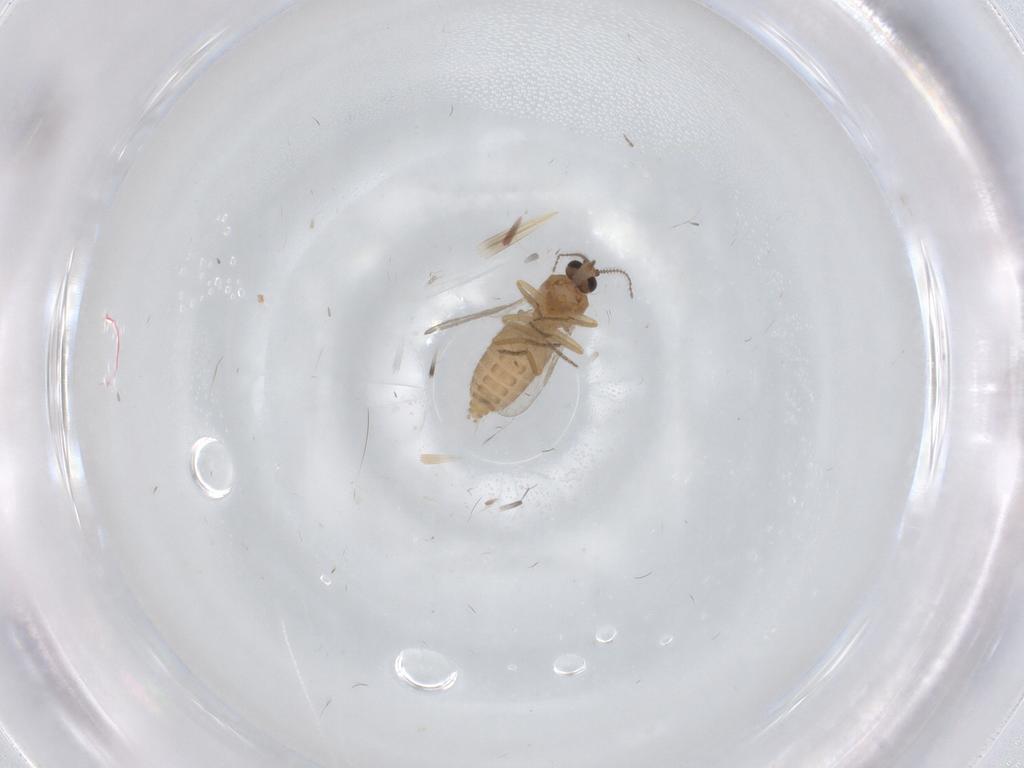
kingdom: Animalia
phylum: Arthropoda
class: Insecta
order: Diptera
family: Ceratopogonidae
